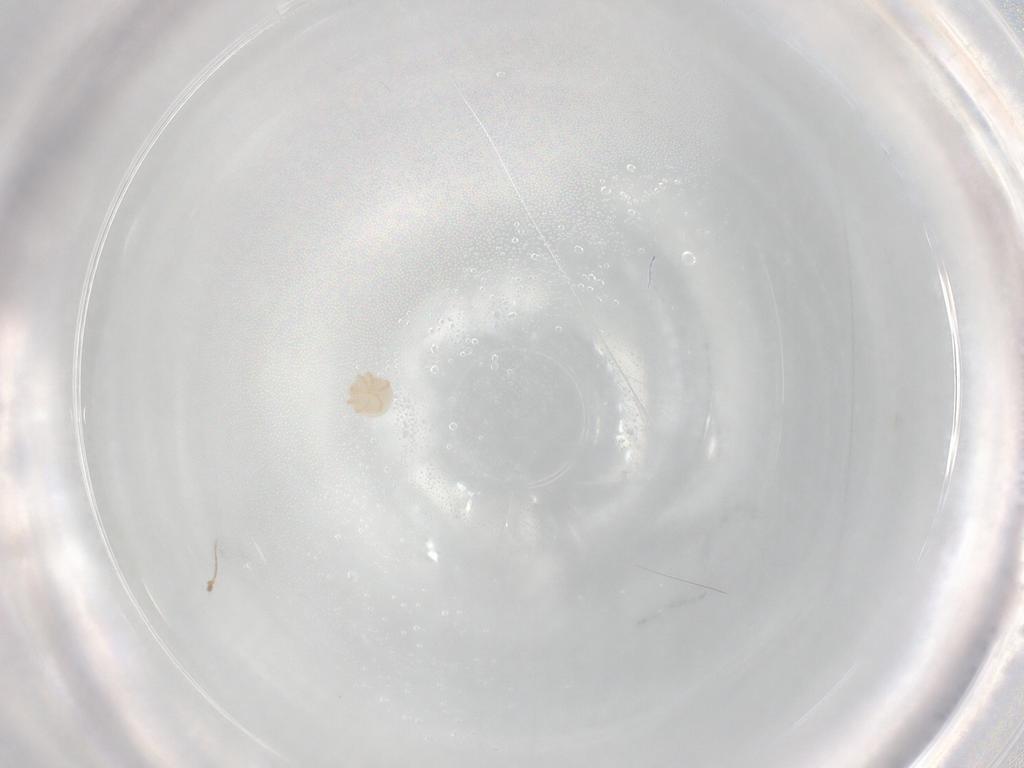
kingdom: Animalia
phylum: Arthropoda
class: Arachnida
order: Trombidiformes
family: Sperchontidae
